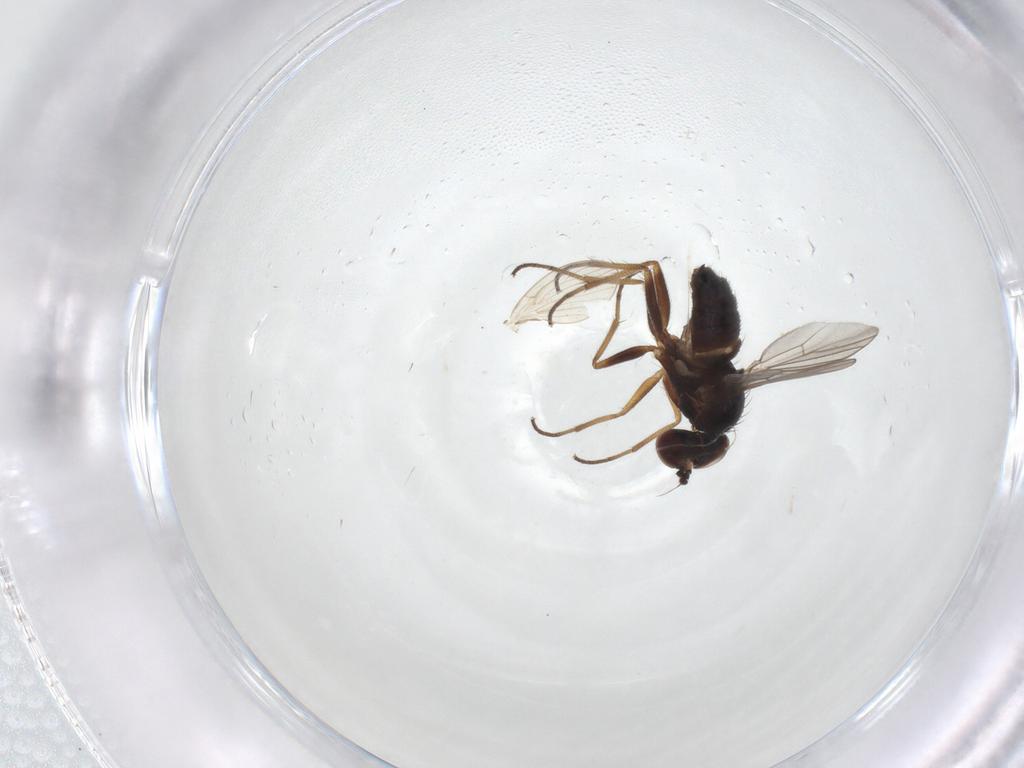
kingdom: Animalia
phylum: Arthropoda
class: Insecta
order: Diptera
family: Dolichopodidae
